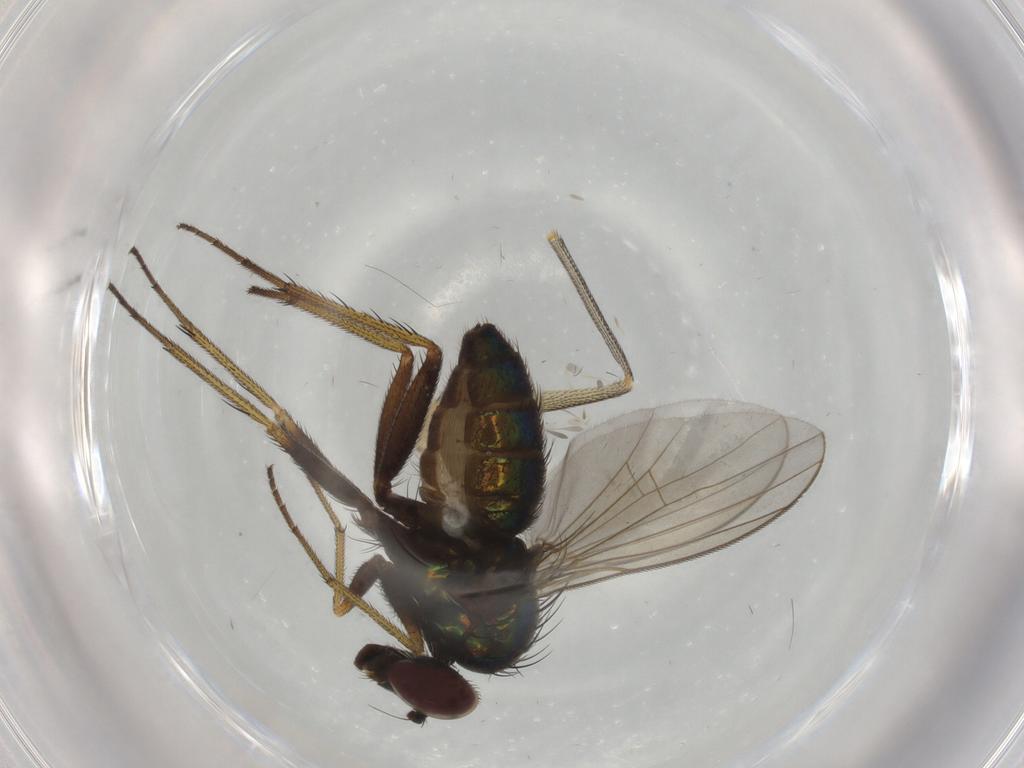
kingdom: Animalia
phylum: Arthropoda
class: Insecta
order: Diptera
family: Dolichopodidae
